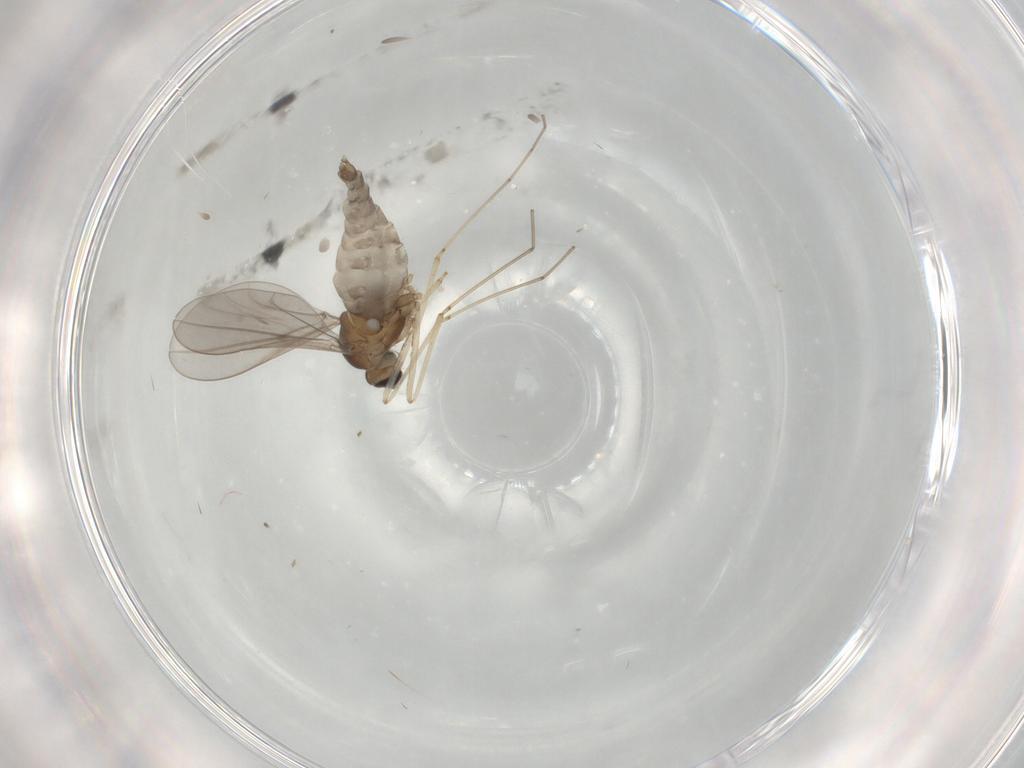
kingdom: Animalia
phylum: Arthropoda
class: Insecta
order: Diptera
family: Cecidomyiidae
